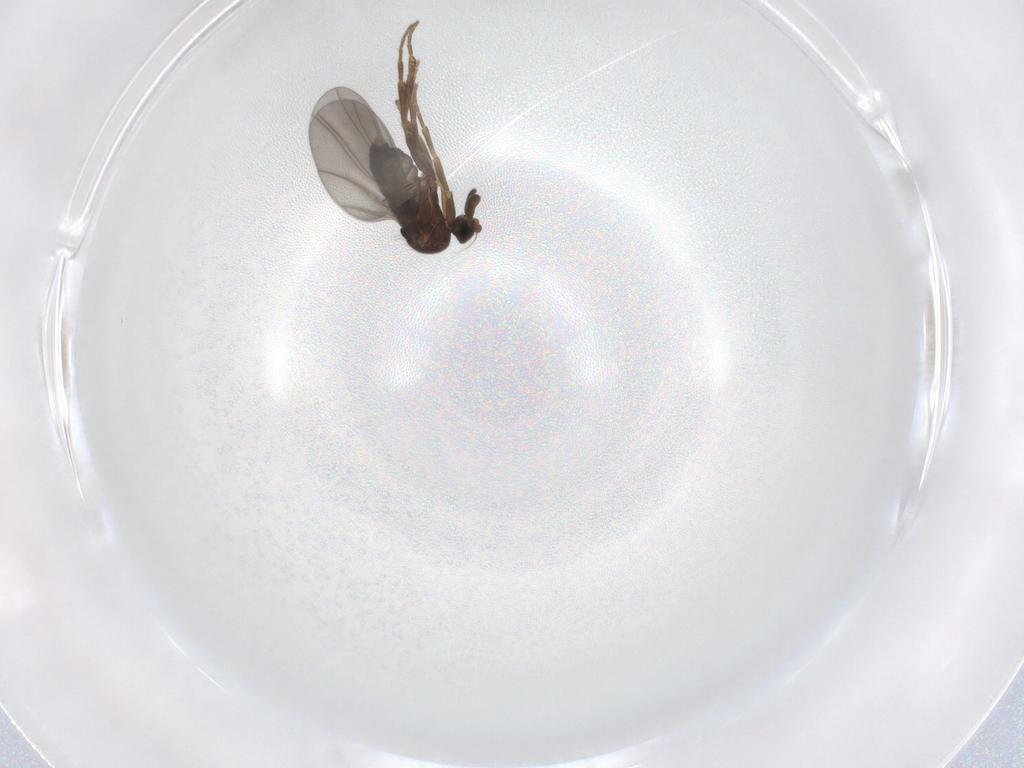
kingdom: Animalia
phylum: Arthropoda
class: Insecta
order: Diptera
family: Phoridae
